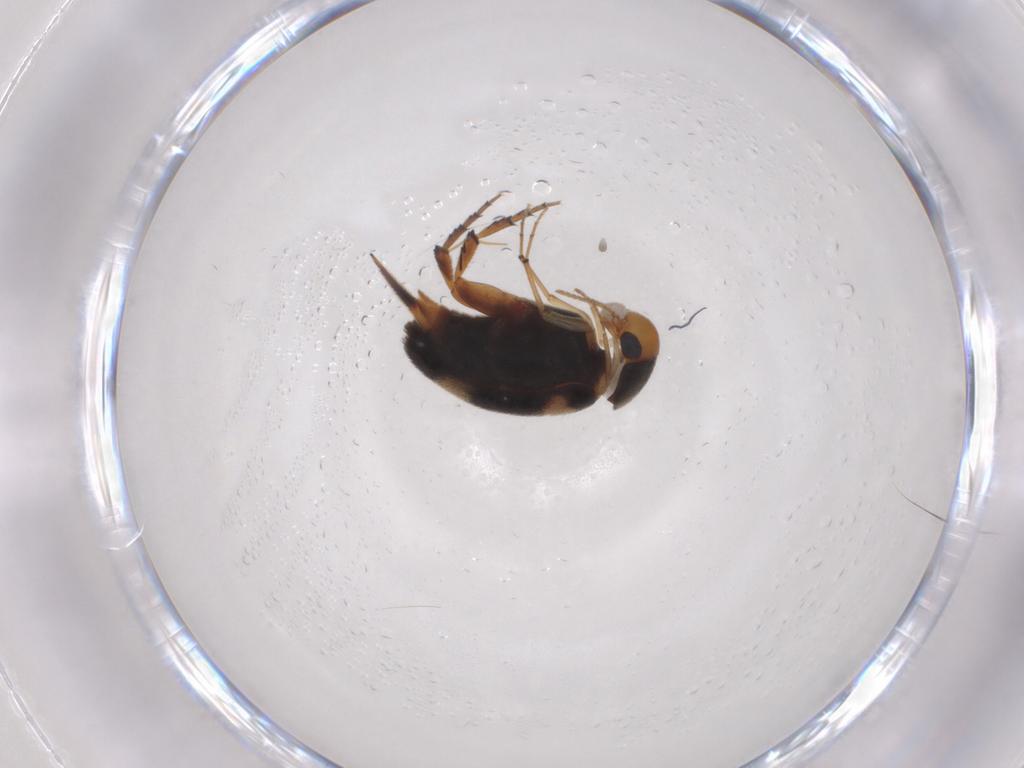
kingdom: Animalia
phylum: Arthropoda
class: Insecta
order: Coleoptera
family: Mordellidae
